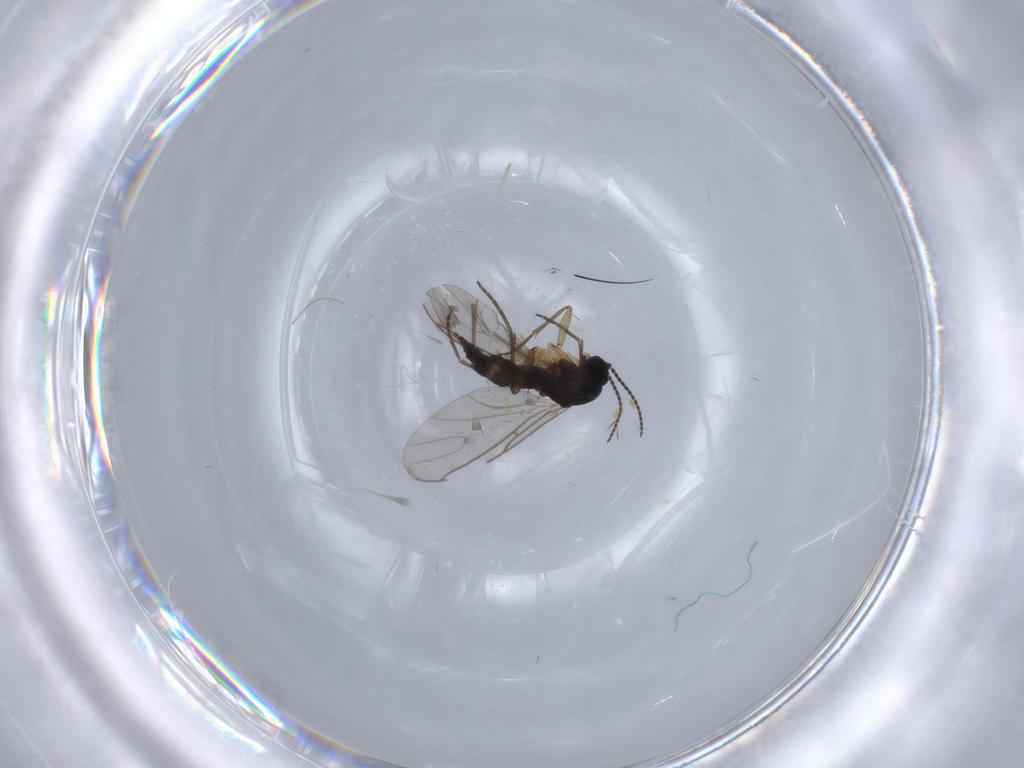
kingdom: Animalia
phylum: Arthropoda
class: Insecta
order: Diptera
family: Sciaridae
